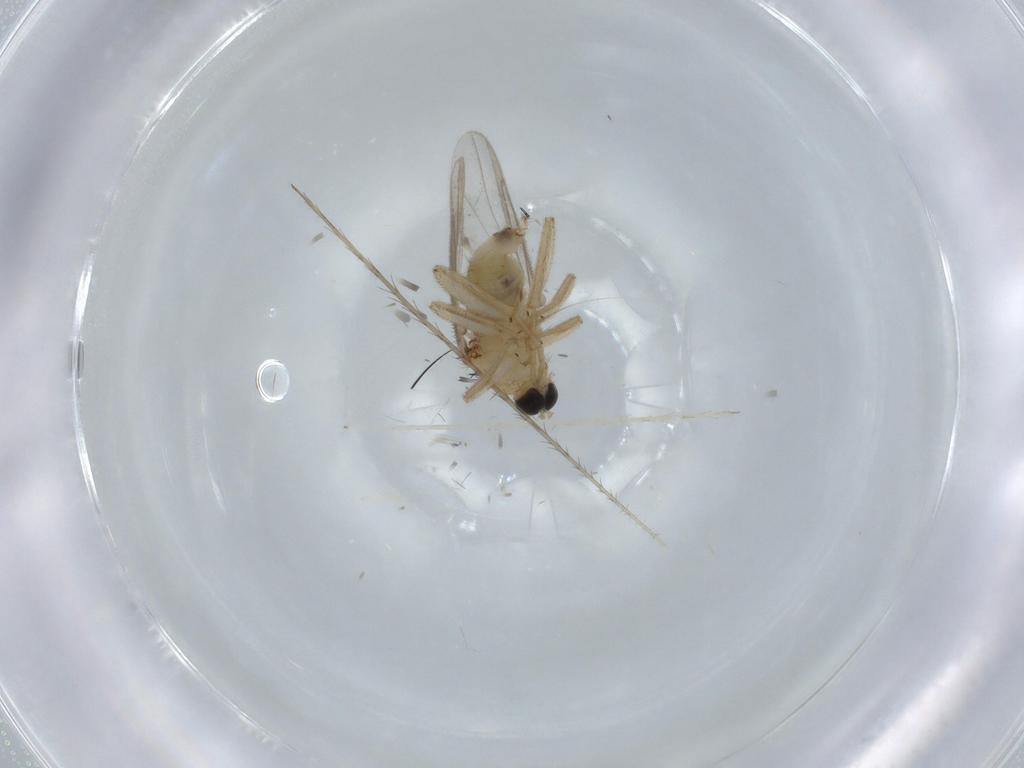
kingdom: Animalia
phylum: Arthropoda
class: Insecta
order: Diptera
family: Hybotidae
